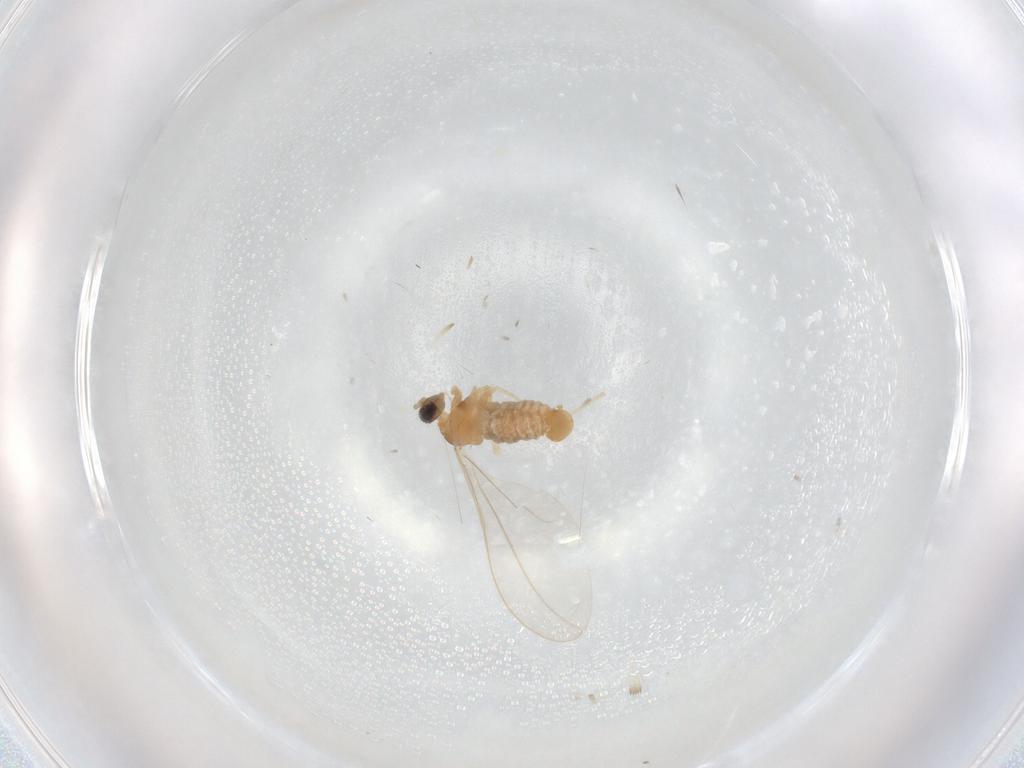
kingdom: Animalia
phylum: Arthropoda
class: Insecta
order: Diptera
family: Cecidomyiidae
